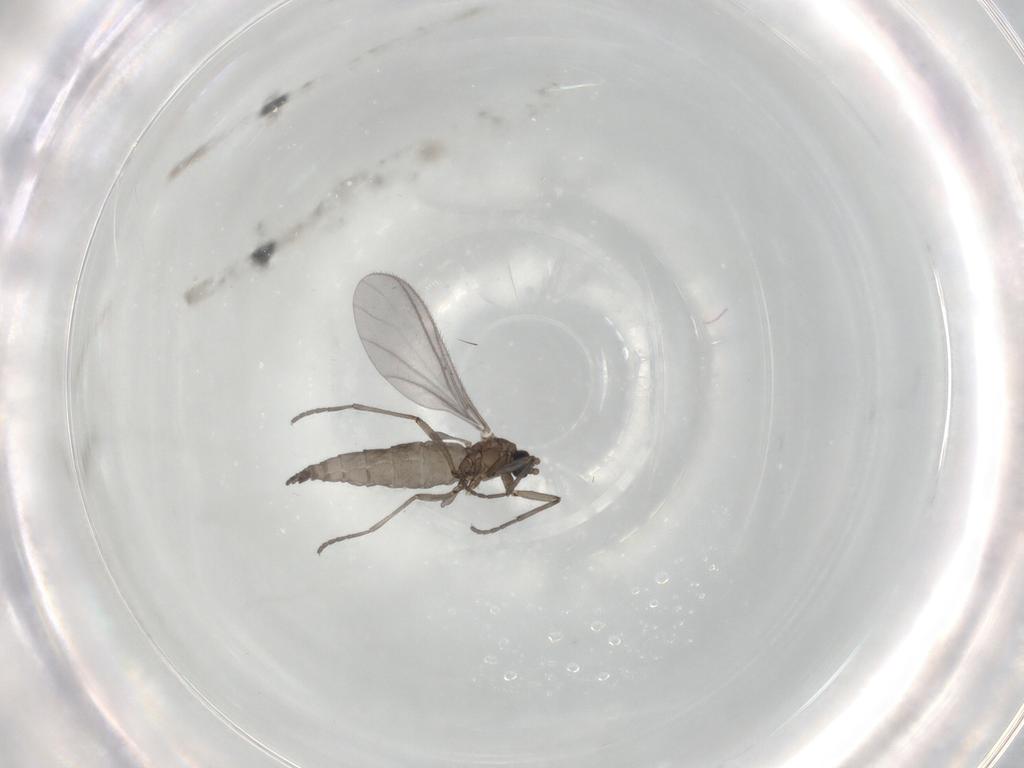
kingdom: Animalia
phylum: Arthropoda
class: Insecta
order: Diptera
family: Sciaridae
